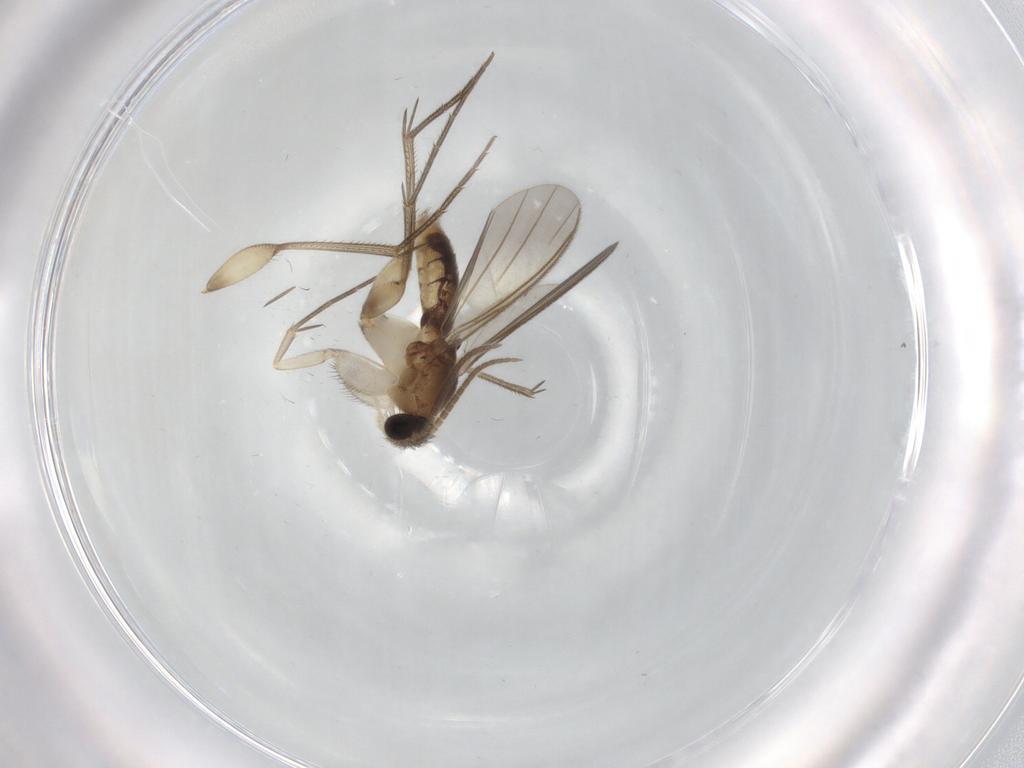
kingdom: Animalia
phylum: Arthropoda
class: Insecta
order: Diptera
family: Mycetophilidae
